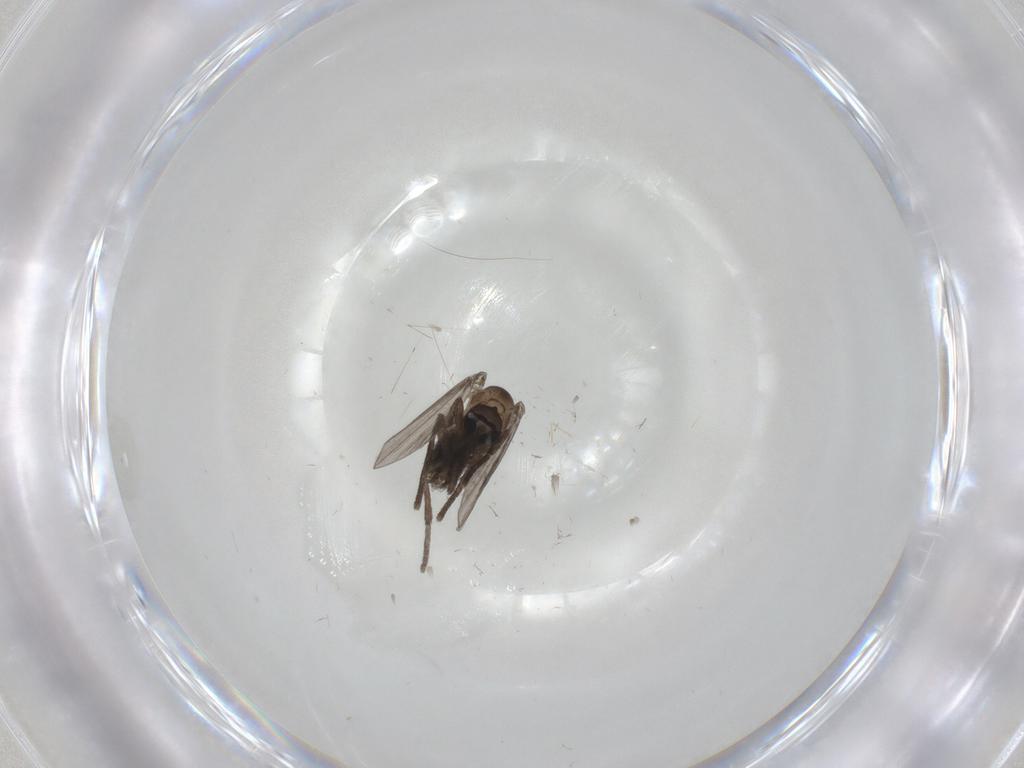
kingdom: Animalia
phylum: Arthropoda
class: Insecta
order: Diptera
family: Psychodidae
